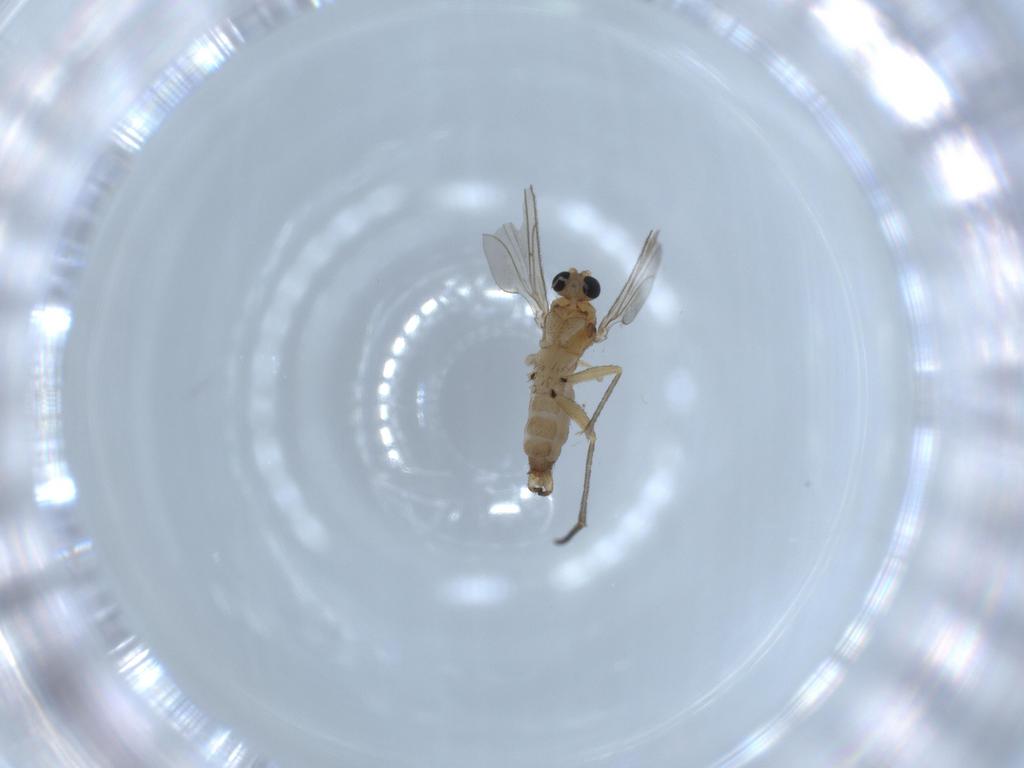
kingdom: Animalia
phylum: Arthropoda
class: Insecta
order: Diptera
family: Sciaridae
